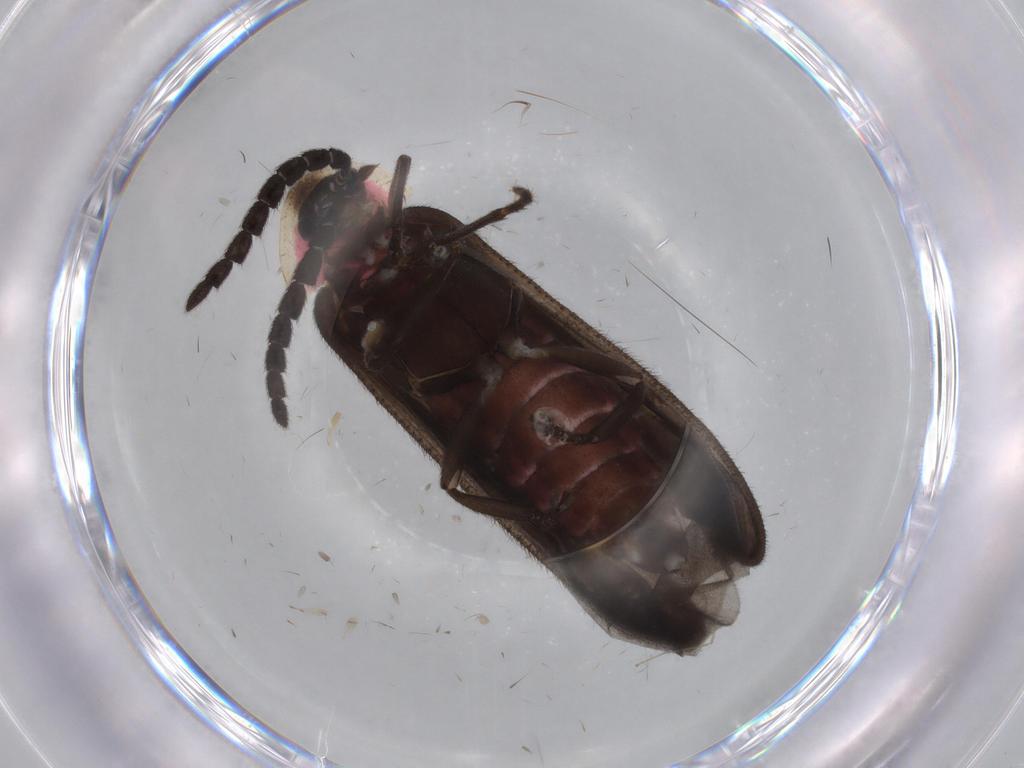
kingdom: Animalia
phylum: Arthropoda
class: Insecta
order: Coleoptera
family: Lampyridae
